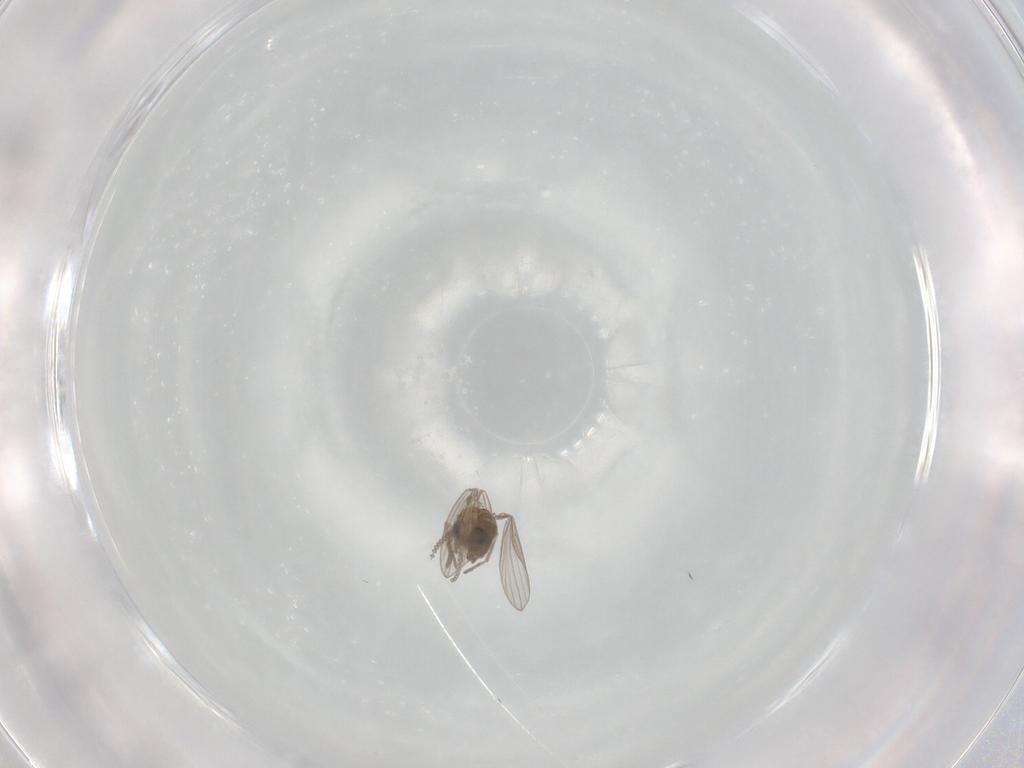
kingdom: Animalia
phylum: Arthropoda
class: Insecta
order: Diptera
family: Psychodidae
